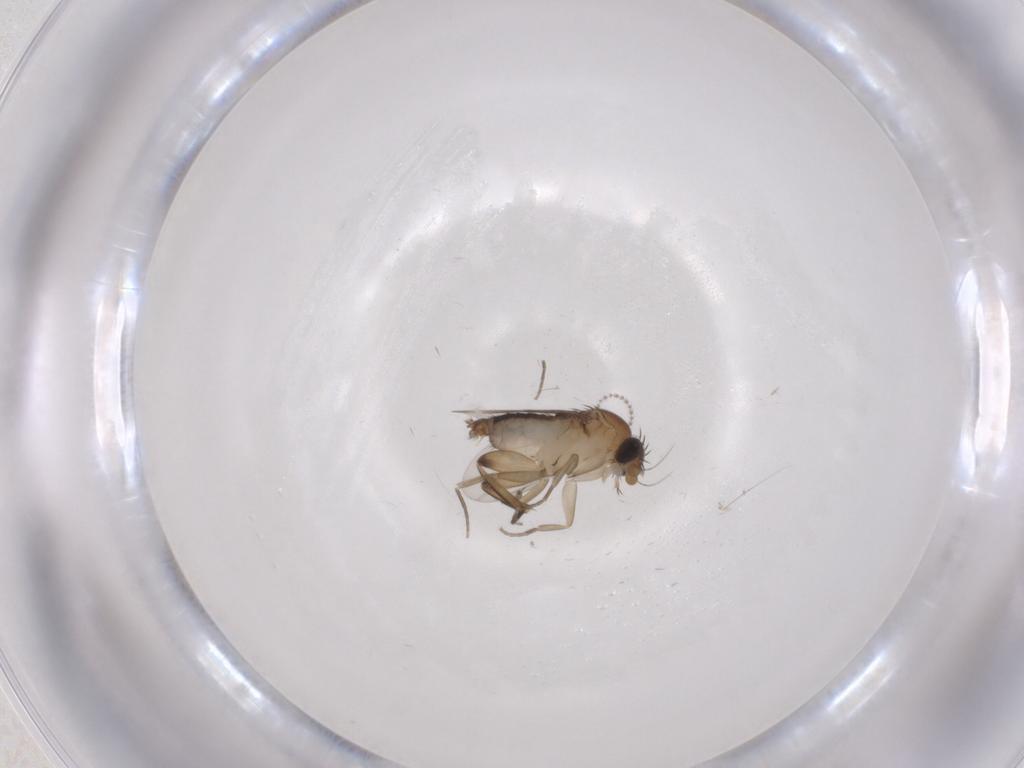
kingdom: Animalia
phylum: Arthropoda
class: Insecta
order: Diptera
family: Phoridae
